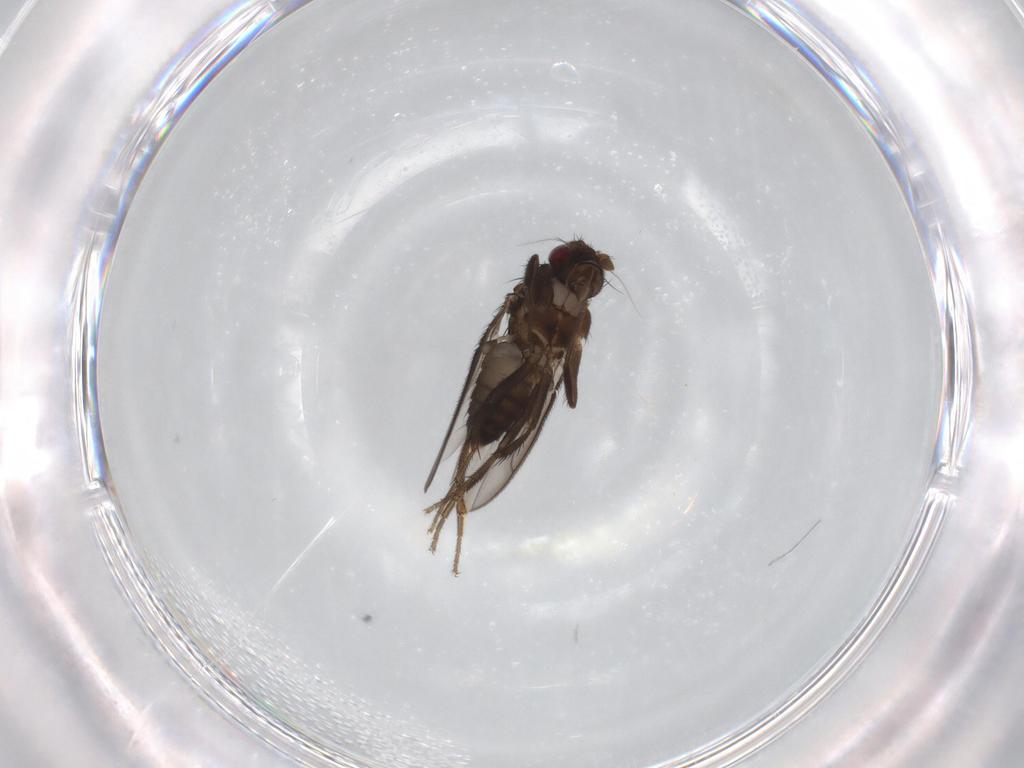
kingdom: Animalia
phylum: Arthropoda
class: Insecta
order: Diptera
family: Sphaeroceridae
